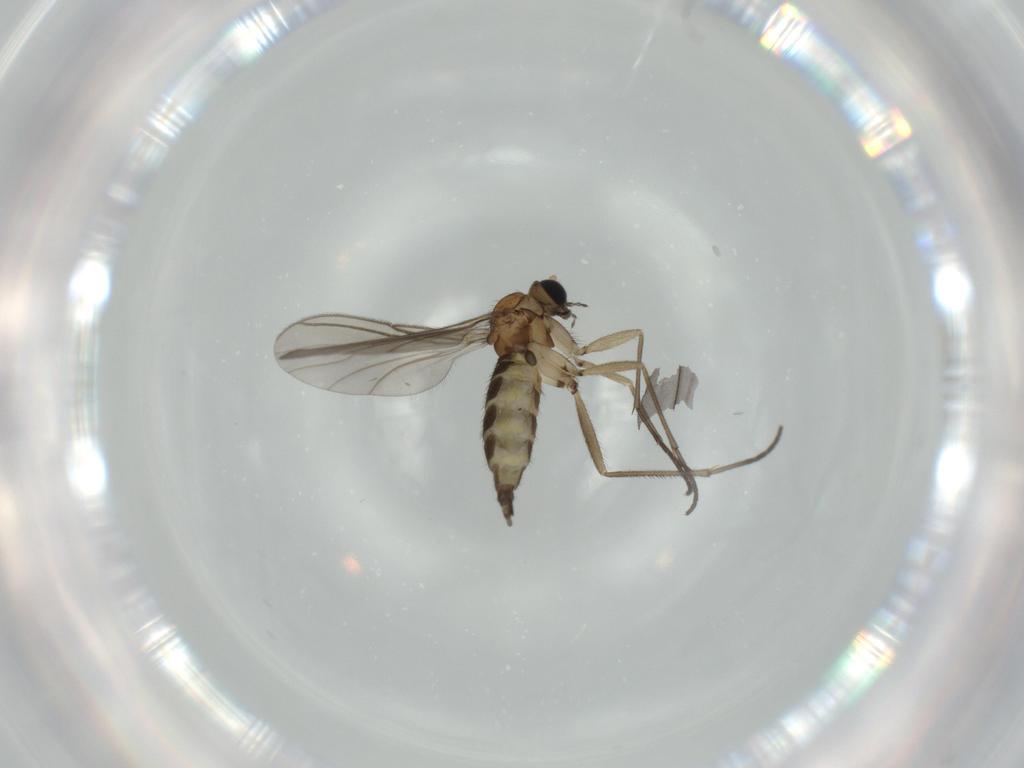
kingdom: Animalia
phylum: Arthropoda
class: Insecta
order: Diptera
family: Sciaridae
